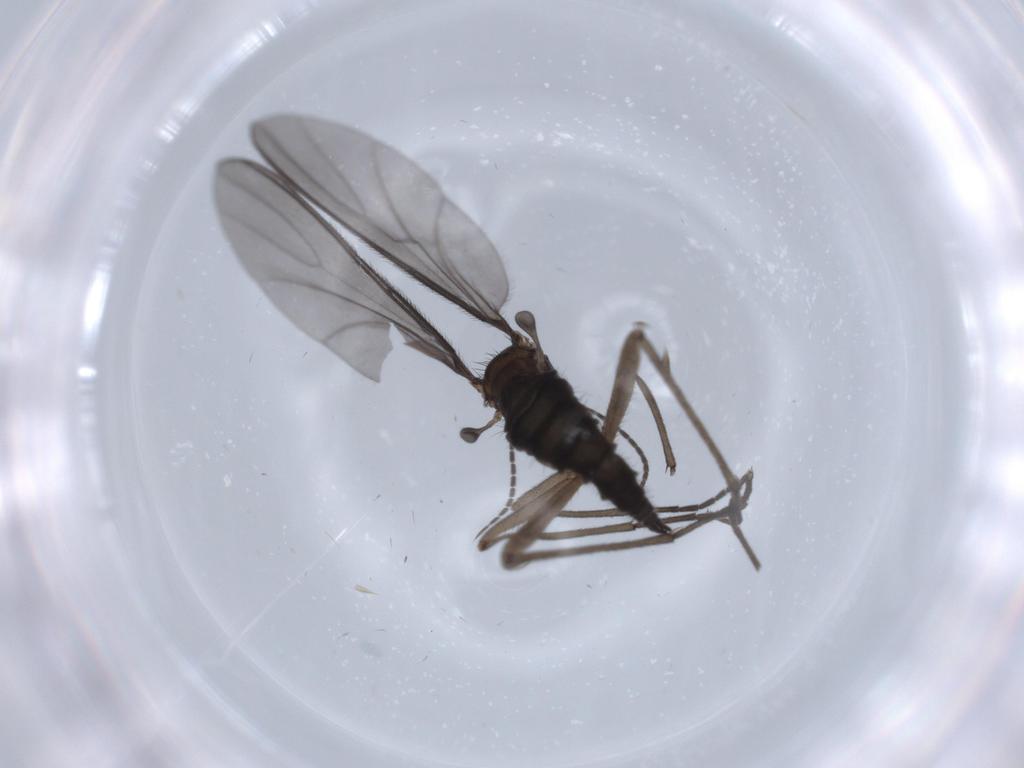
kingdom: Animalia
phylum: Arthropoda
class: Insecta
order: Diptera
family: Sciaridae
